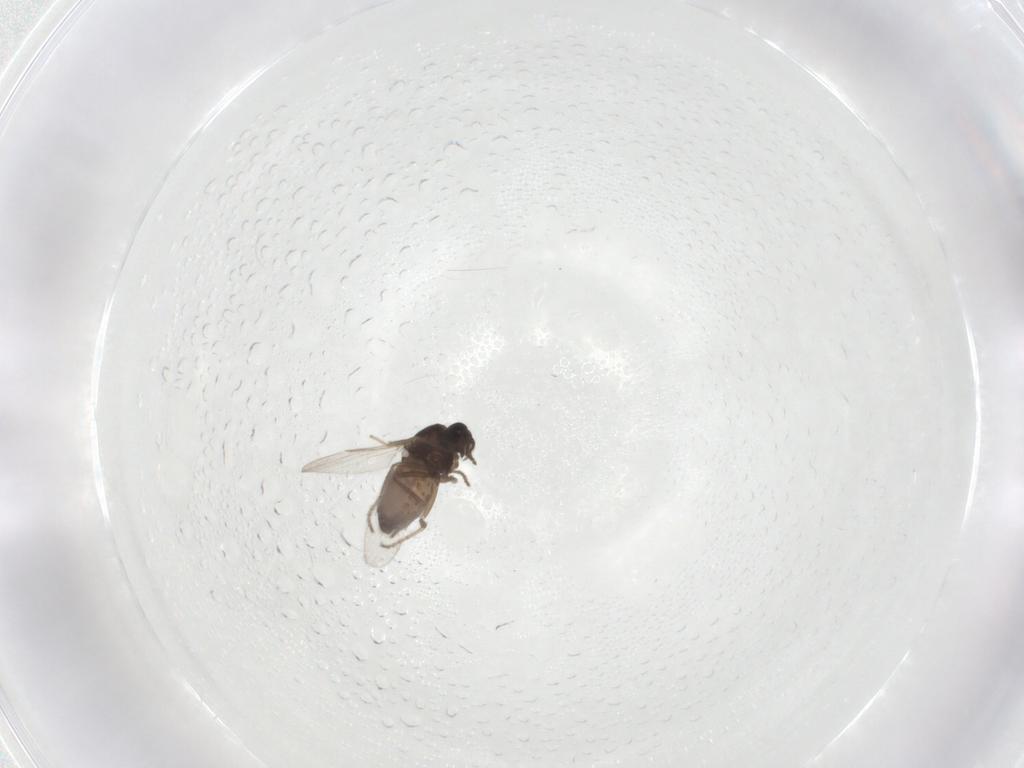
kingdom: Animalia
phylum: Arthropoda
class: Insecta
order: Diptera
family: Ceratopogonidae
